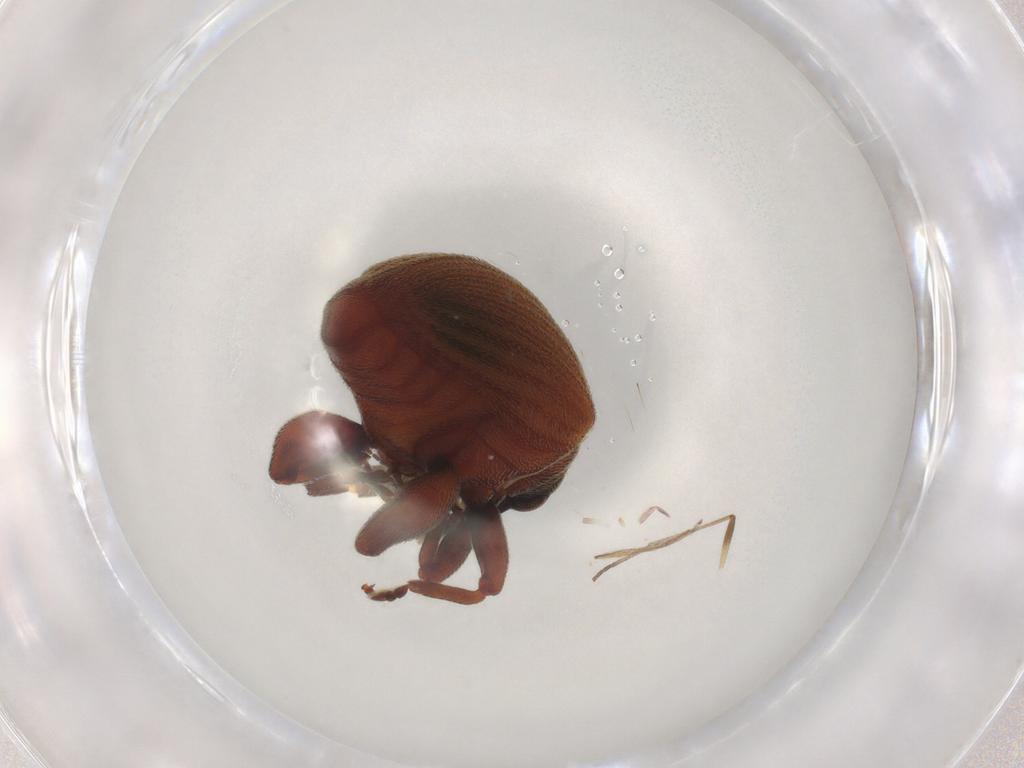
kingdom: Animalia
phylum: Arthropoda
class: Insecta
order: Coleoptera
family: Curculionidae
